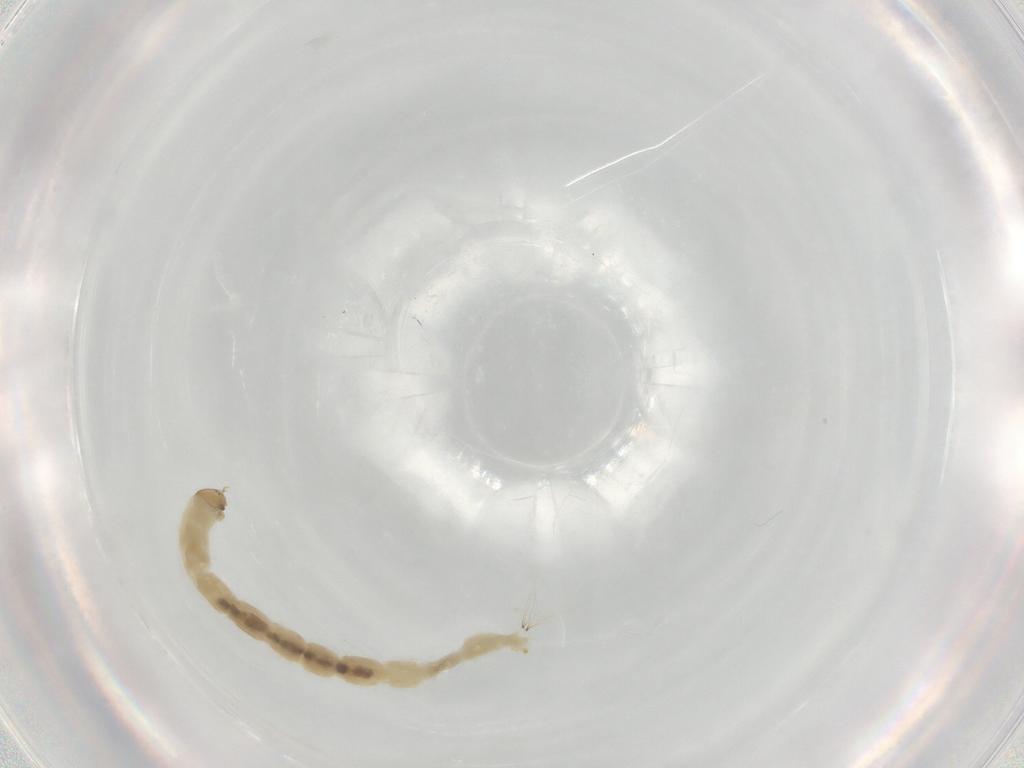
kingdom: Animalia
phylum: Arthropoda
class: Insecta
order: Diptera
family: Chironomidae
